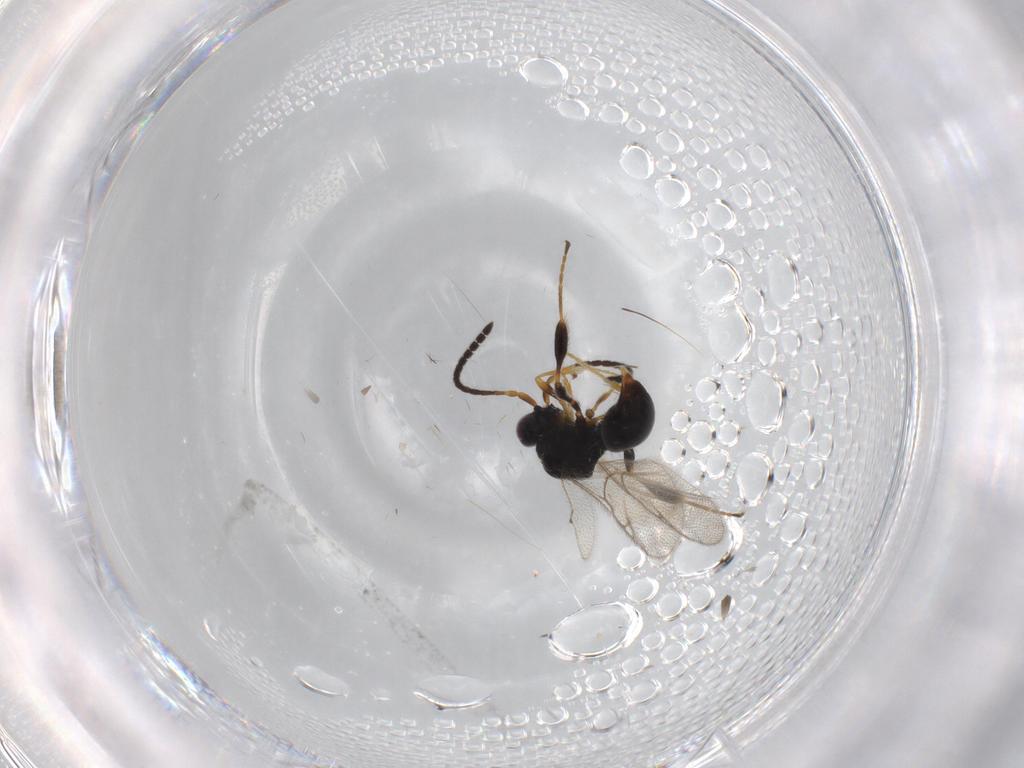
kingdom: Animalia
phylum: Arthropoda
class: Insecta
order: Hymenoptera
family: Diapriidae
